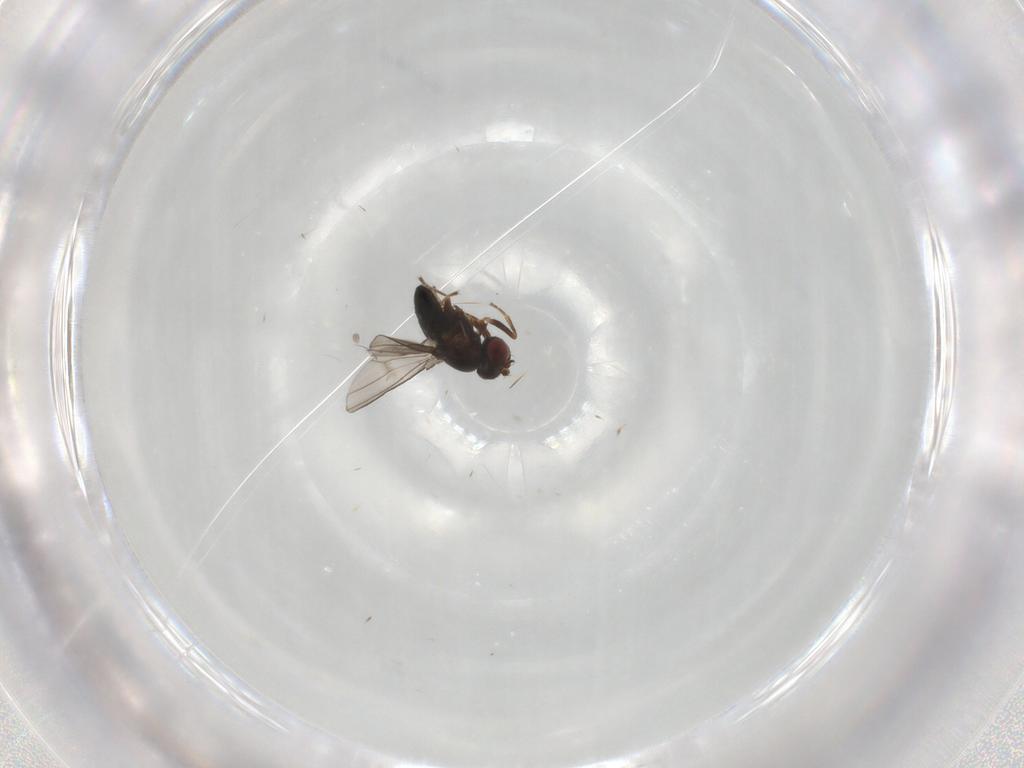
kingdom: Animalia
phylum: Arthropoda
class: Insecta
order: Diptera
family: Ephydridae
